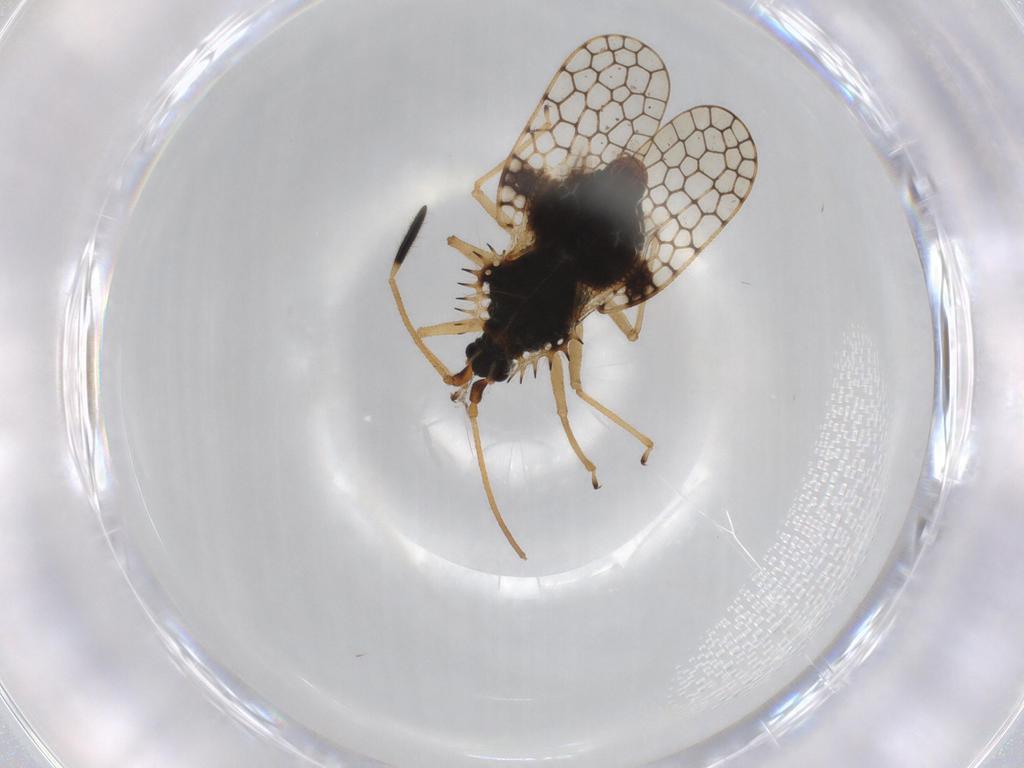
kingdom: Animalia
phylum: Arthropoda
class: Insecta
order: Hemiptera
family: Tingidae
